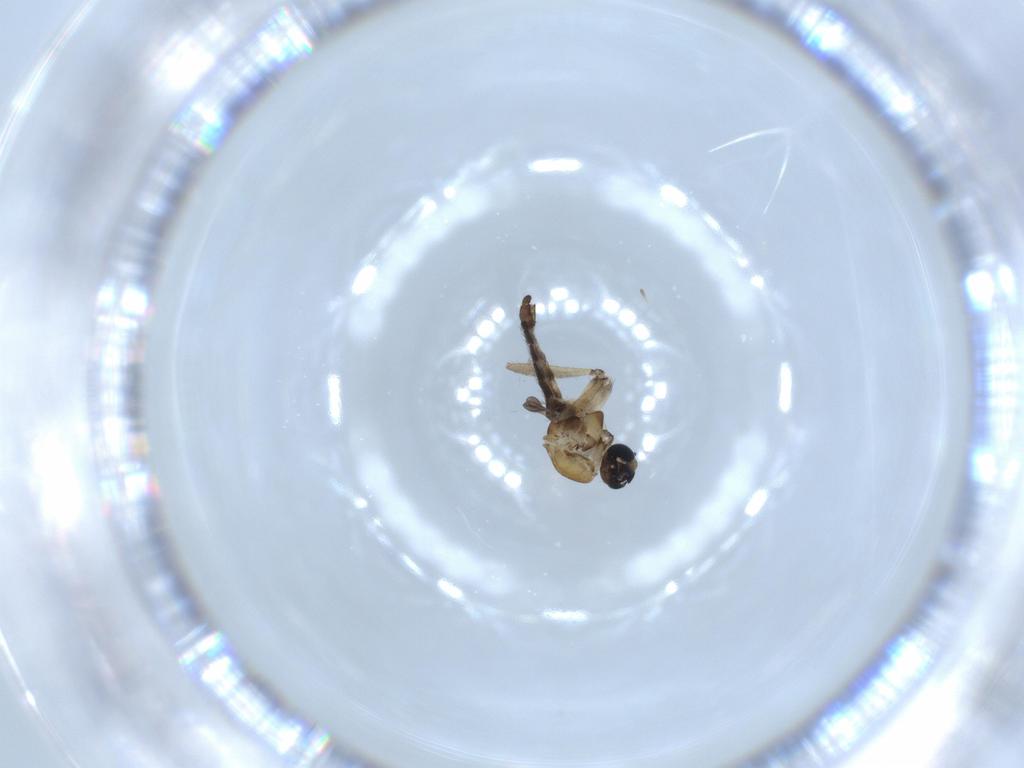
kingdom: Animalia
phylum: Arthropoda
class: Insecta
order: Diptera
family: Sciaridae
